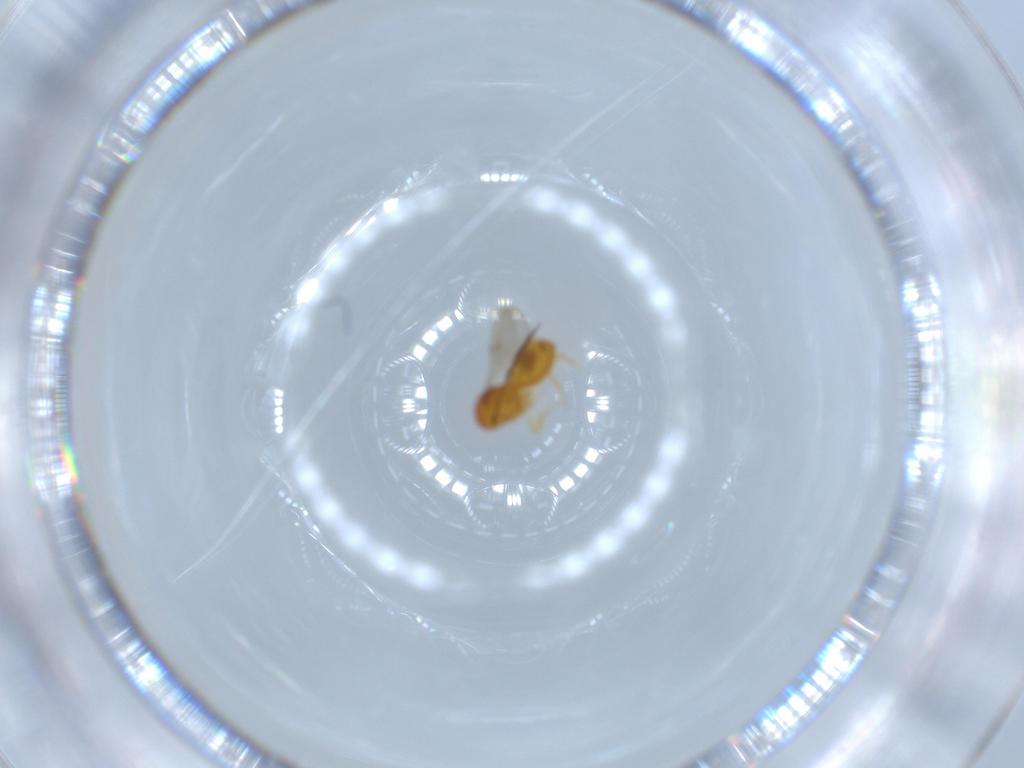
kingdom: Animalia
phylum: Arthropoda
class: Insecta
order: Hymenoptera
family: Scelionidae
